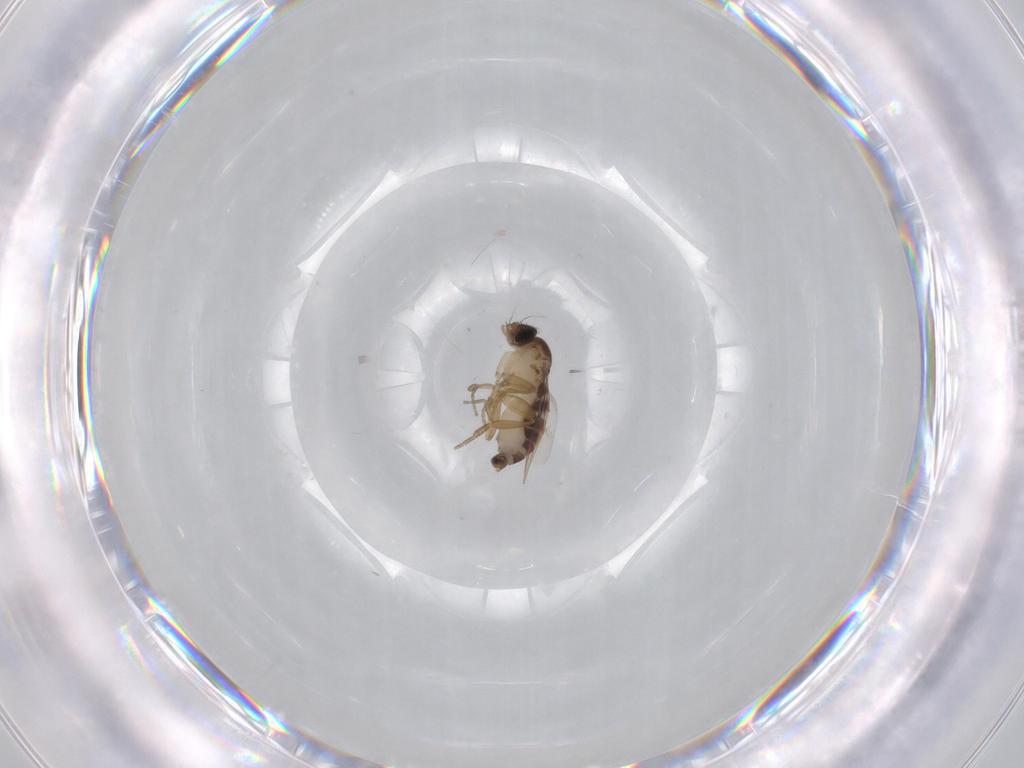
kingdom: Animalia
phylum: Arthropoda
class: Insecta
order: Diptera
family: Phoridae
